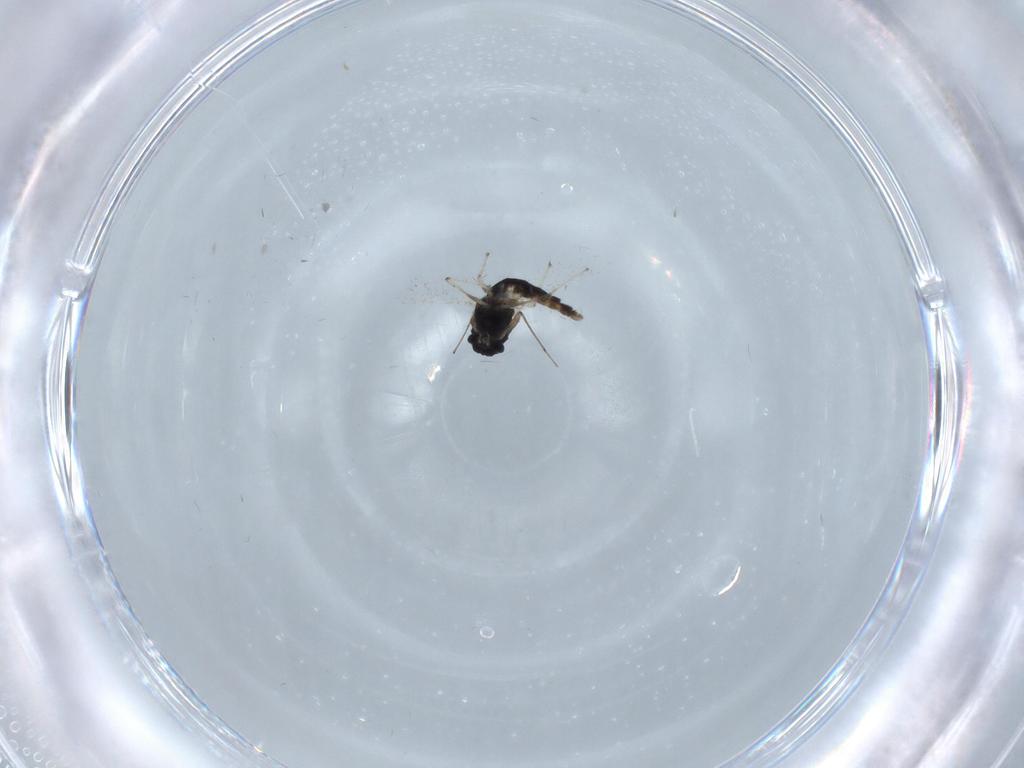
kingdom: Animalia
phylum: Arthropoda
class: Insecta
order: Diptera
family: Chironomidae
